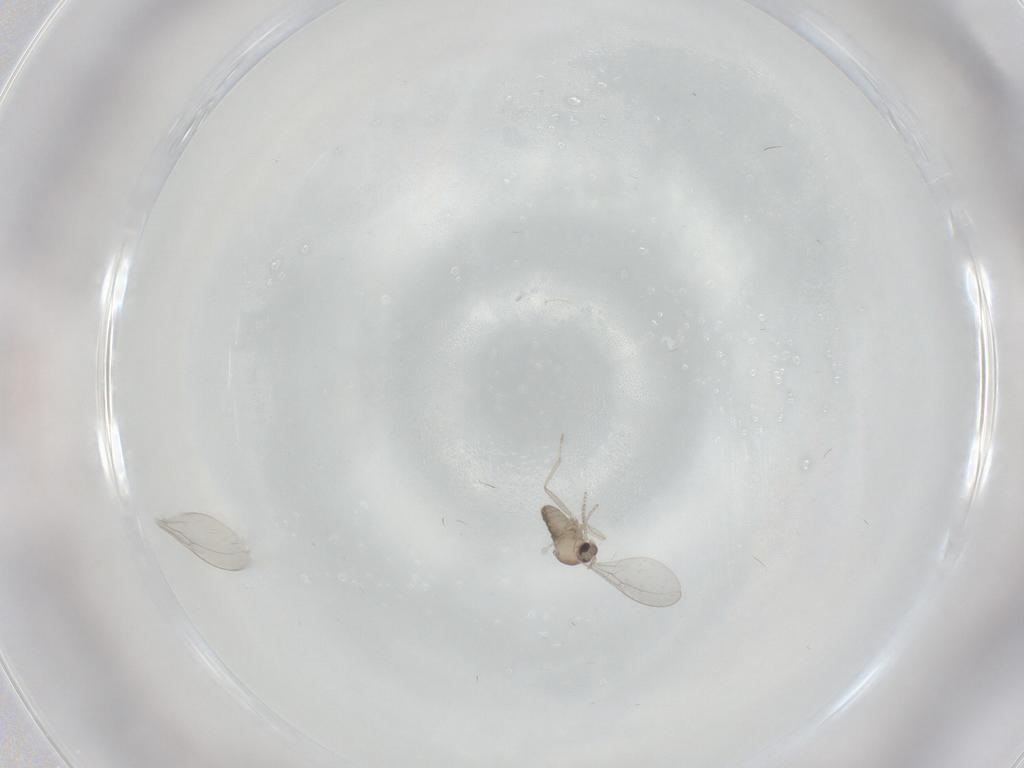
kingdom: Animalia
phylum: Arthropoda
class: Insecta
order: Diptera
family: Cecidomyiidae
